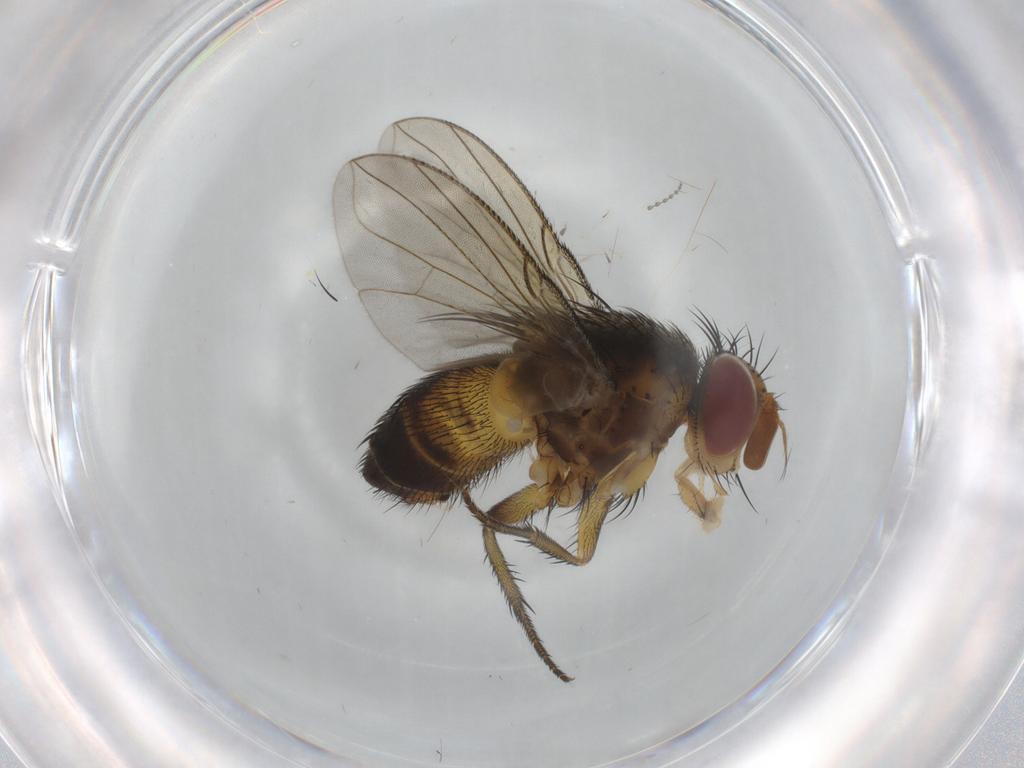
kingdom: Animalia
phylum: Arthropoda
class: Insecta
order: Diptera
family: Tachinidae
